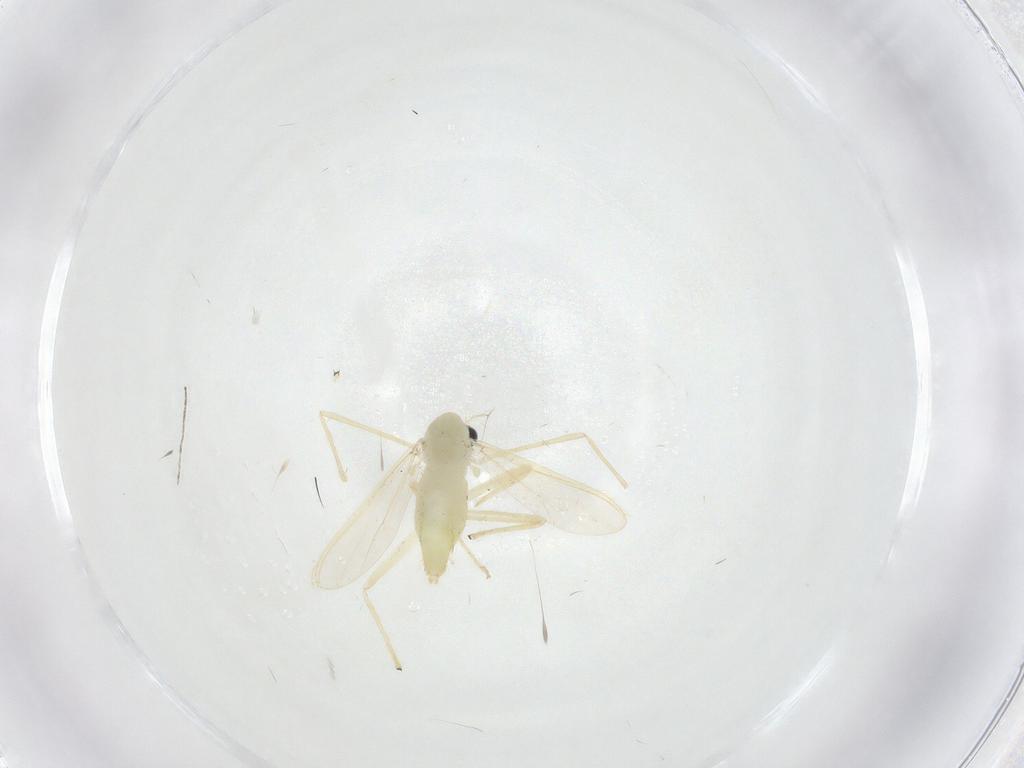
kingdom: Animalia
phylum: Arthropoda
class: Insecta
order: Diptera
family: Chironomidae
